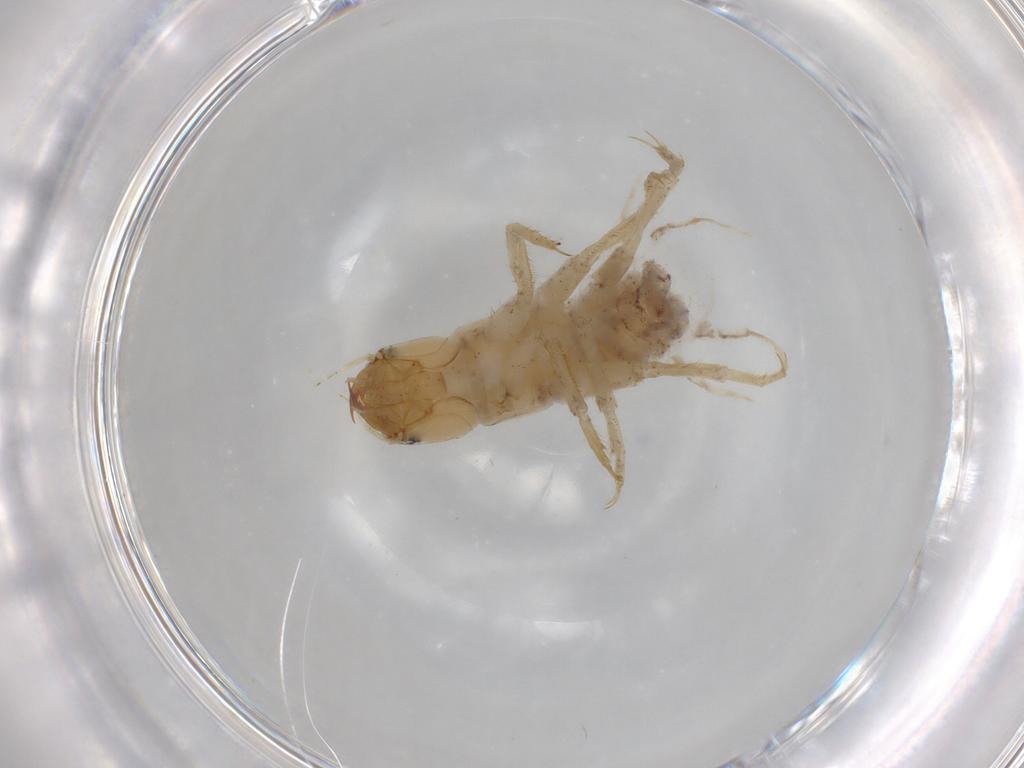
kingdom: Animalia
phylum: Arthropoda
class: Insecta
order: Megaloptera
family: Sialidae
